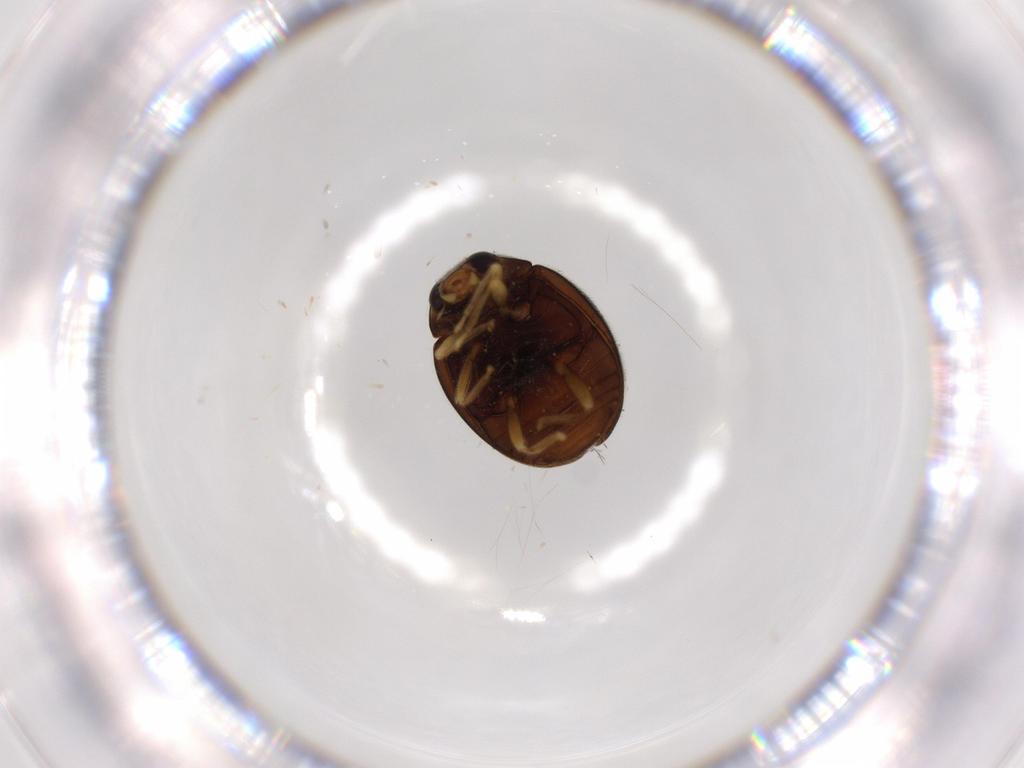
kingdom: Animalia
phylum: Arthropoda
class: Insecta
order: Coleoptera
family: Coccinellidae
